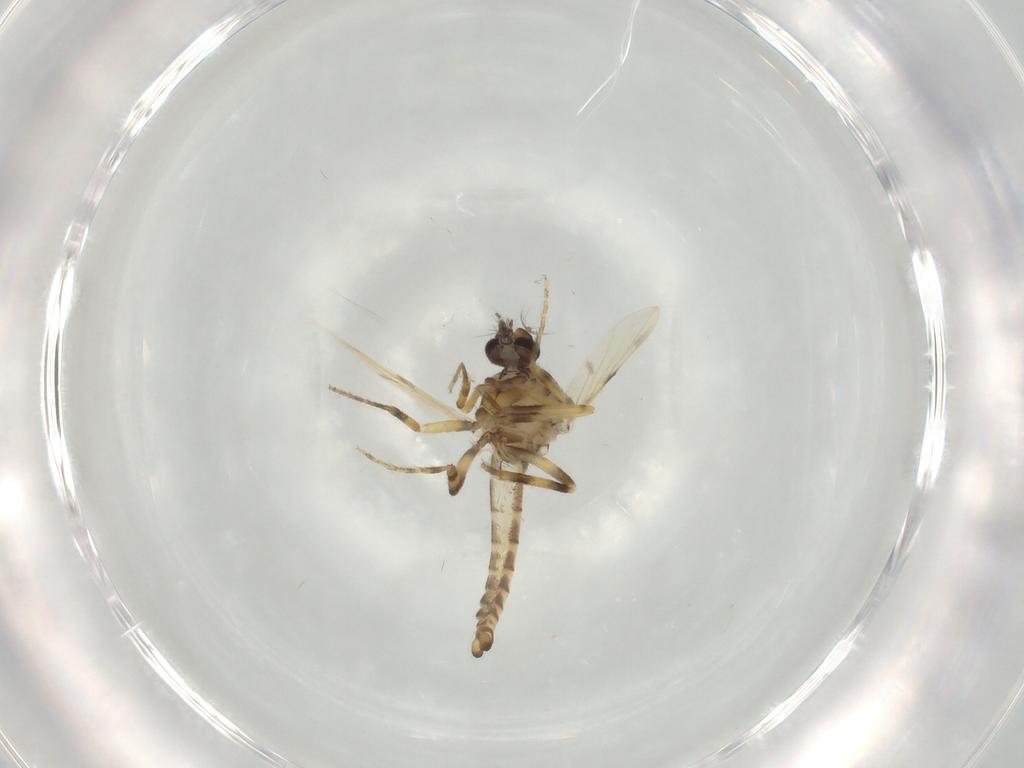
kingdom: Animalia
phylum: Arthropoda
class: Insecta
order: Diptera
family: Ceratopogonidae
